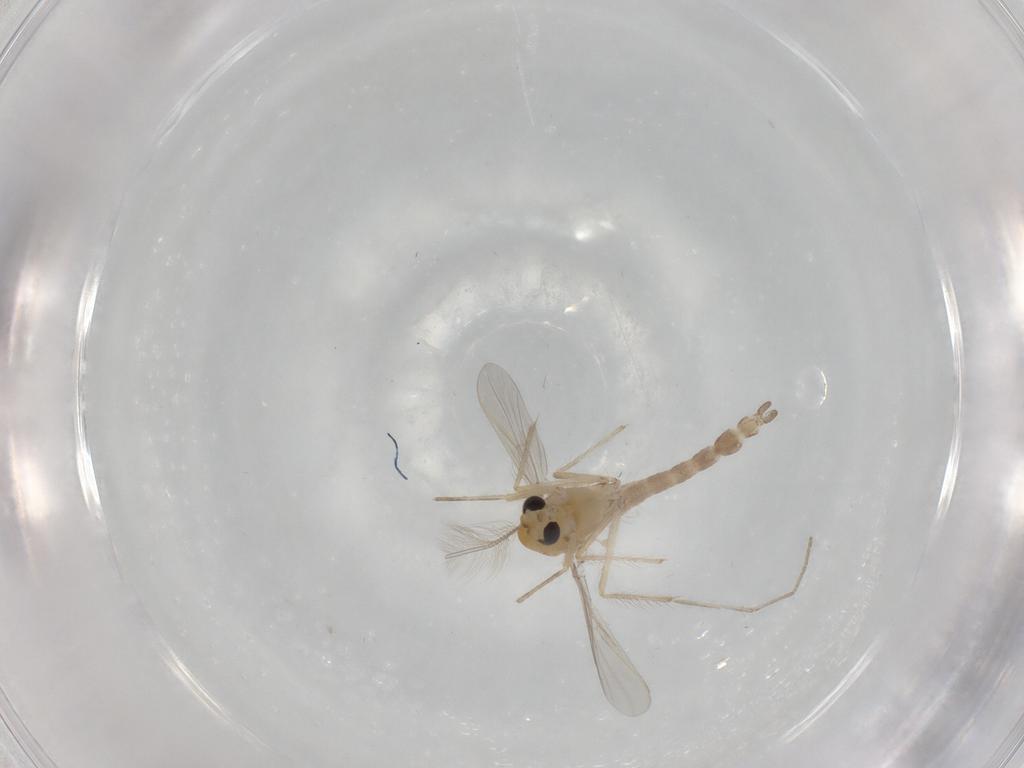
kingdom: Animalia
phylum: Arthropoda
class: Insecta
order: Diptera
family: Chironomidae
